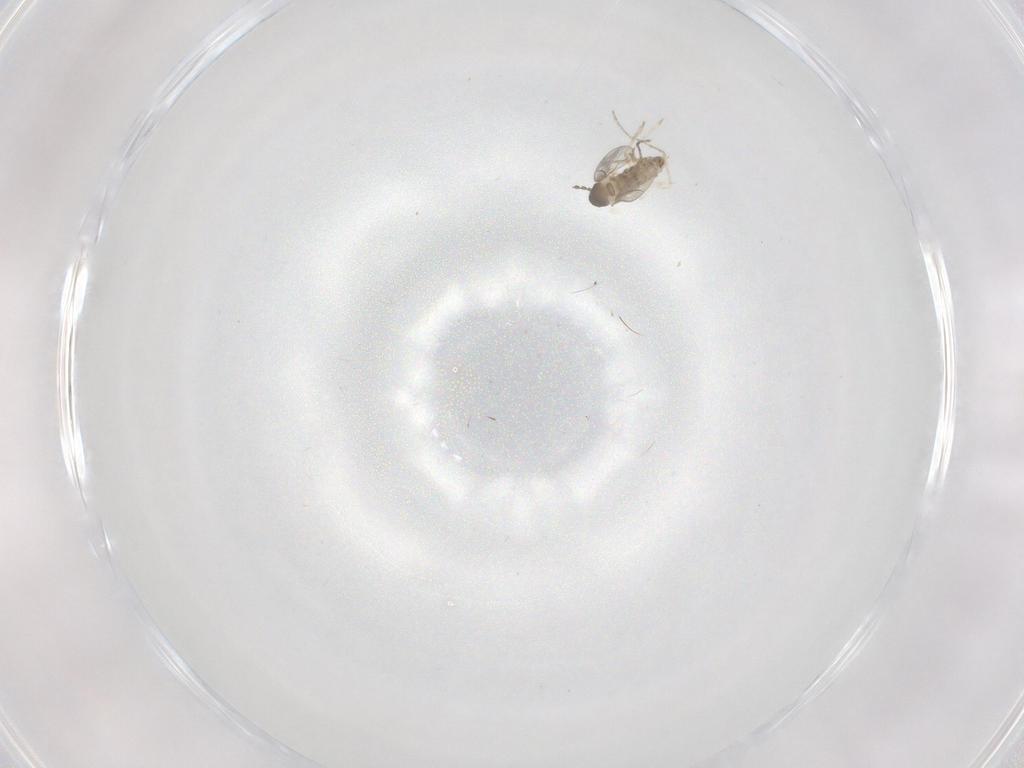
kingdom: Animalia
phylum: Arthropoda
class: Insecta
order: Diptera
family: Cecidomyiidae
